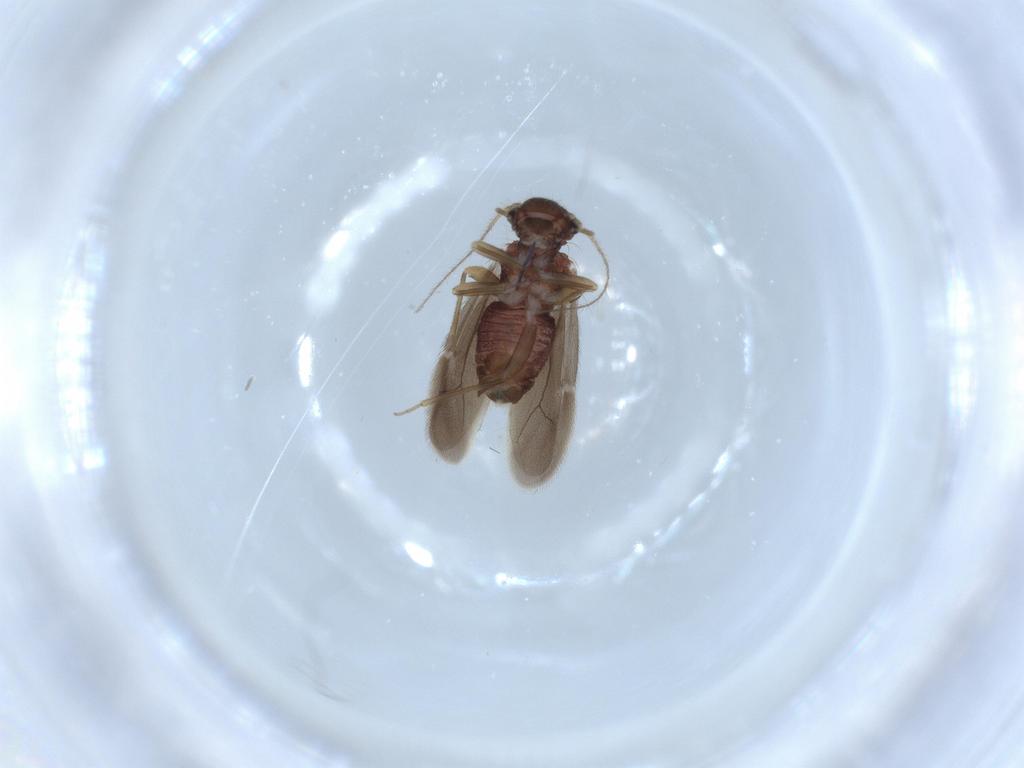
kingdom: Animalia
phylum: Arthropoda
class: Insecta
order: Psocodea
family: Archipsocidae
